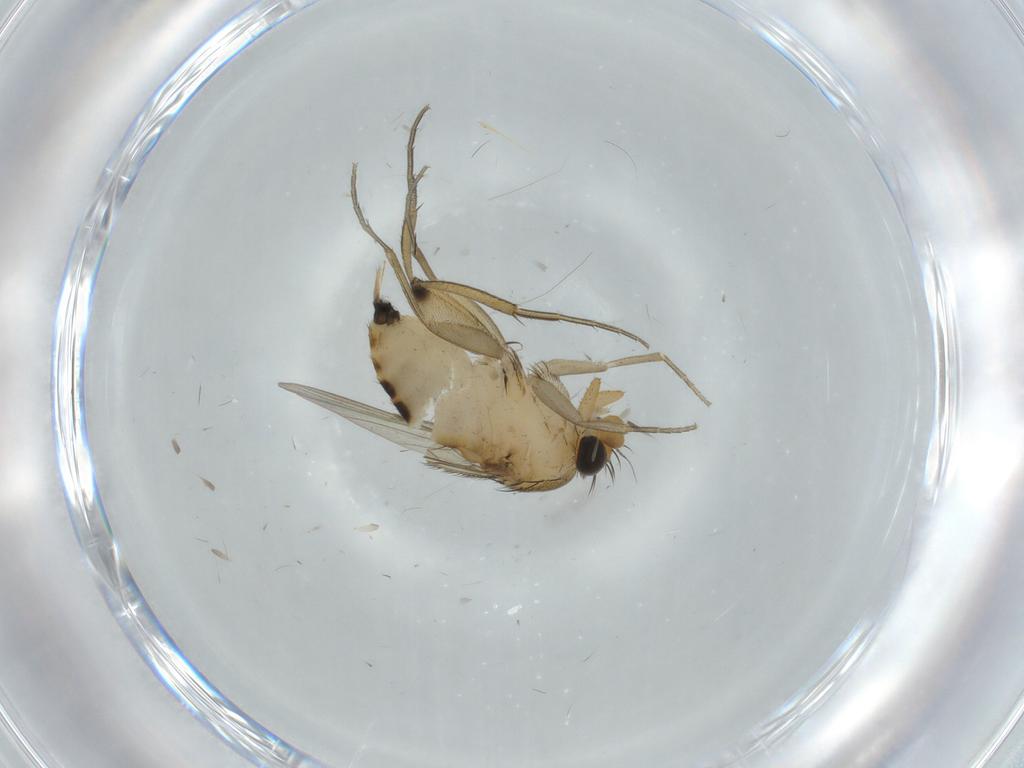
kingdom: Animalia
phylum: Arthropoda
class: Insecta
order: Diptera
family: Phoridae
